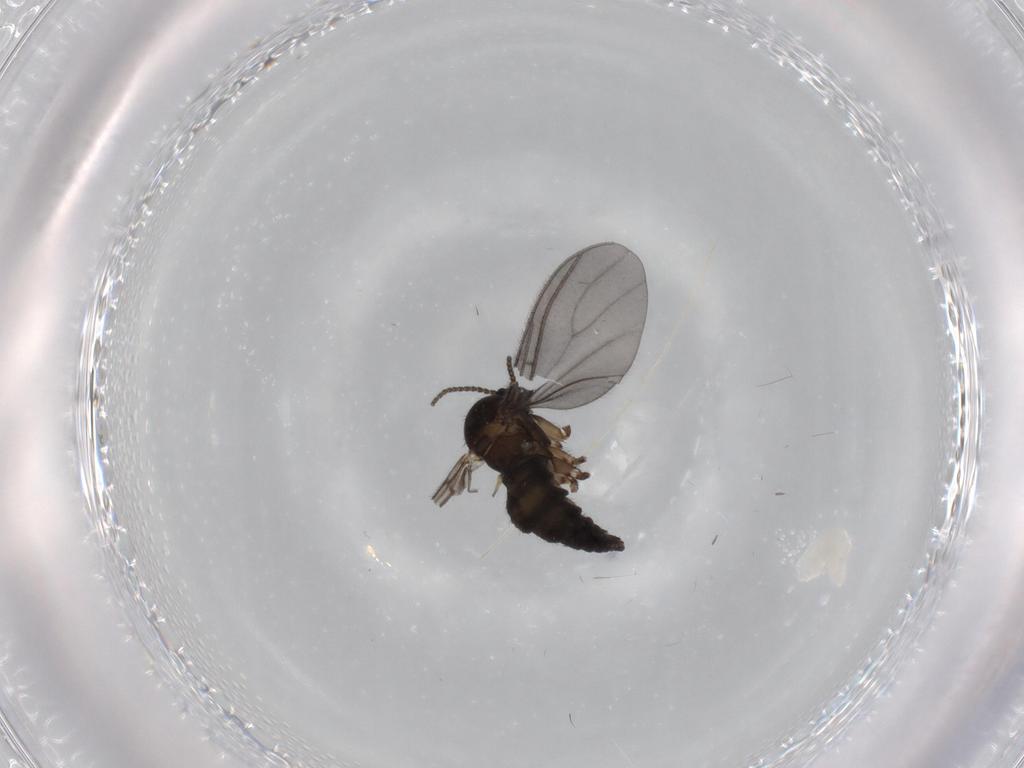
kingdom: Animalia
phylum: Arthropoda
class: Insecta
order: Diptera
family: Sciaridae
